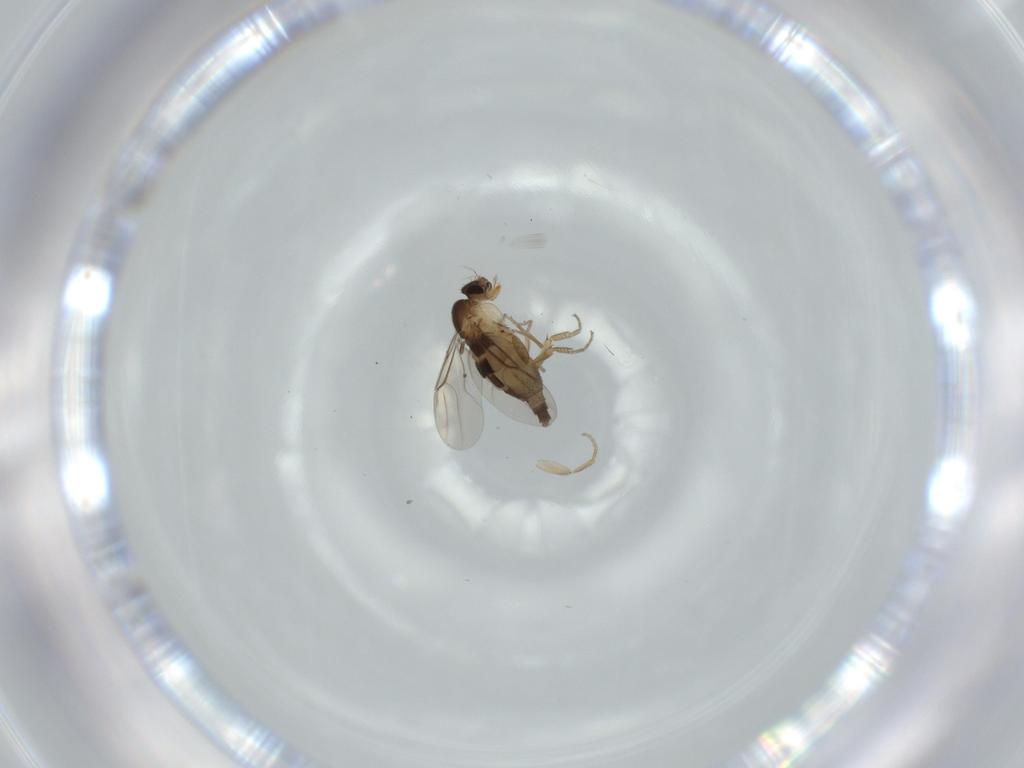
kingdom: Animalia
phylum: Arthropoda
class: Insecta
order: Diptera
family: Phoridae
